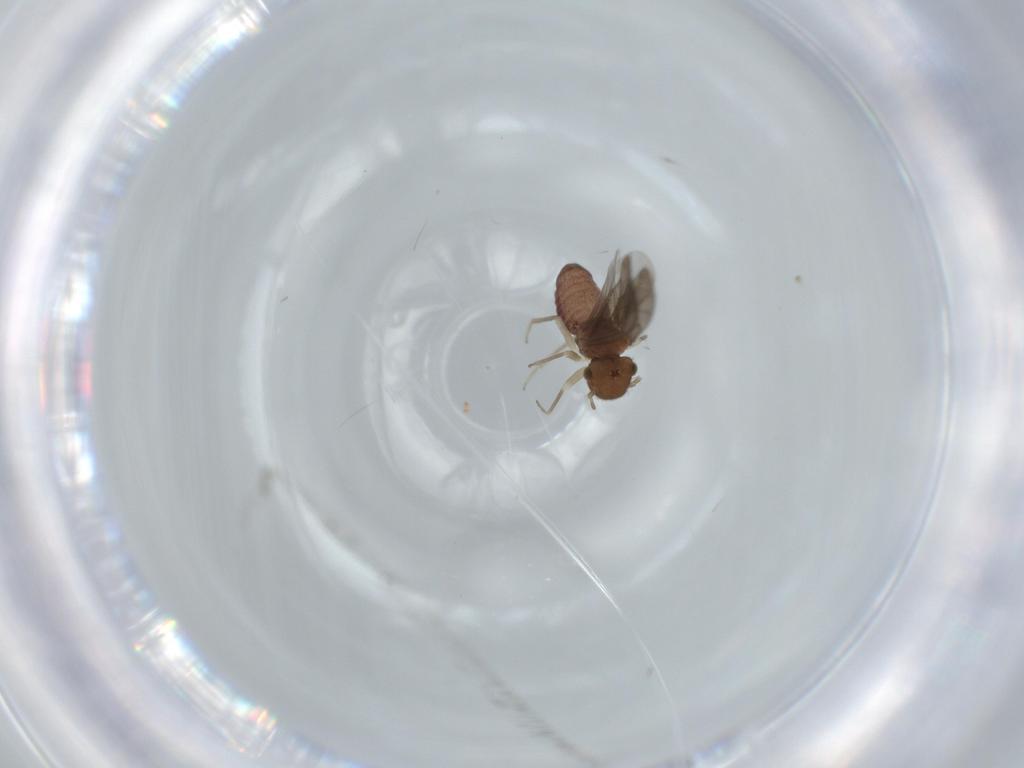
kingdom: Animalia
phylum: Arthropoda
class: Insecta
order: Psocodea
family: Ectopsocidae
